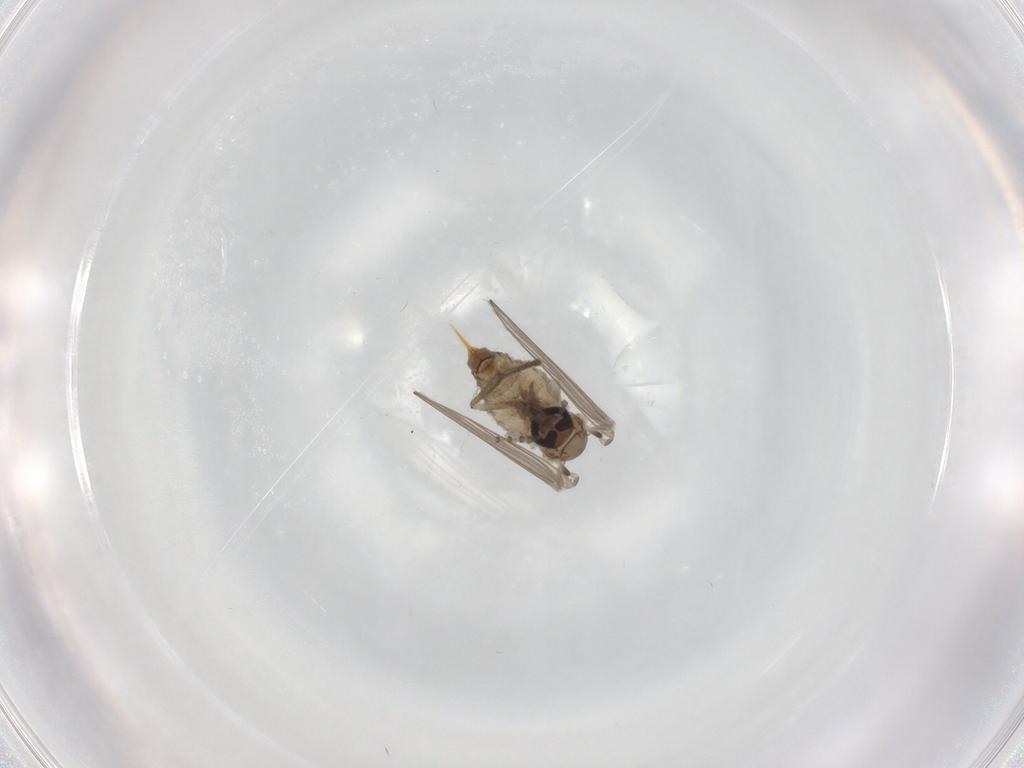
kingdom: Animalia
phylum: Arthropoda
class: Insecta
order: Diptera
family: Psychodidae
